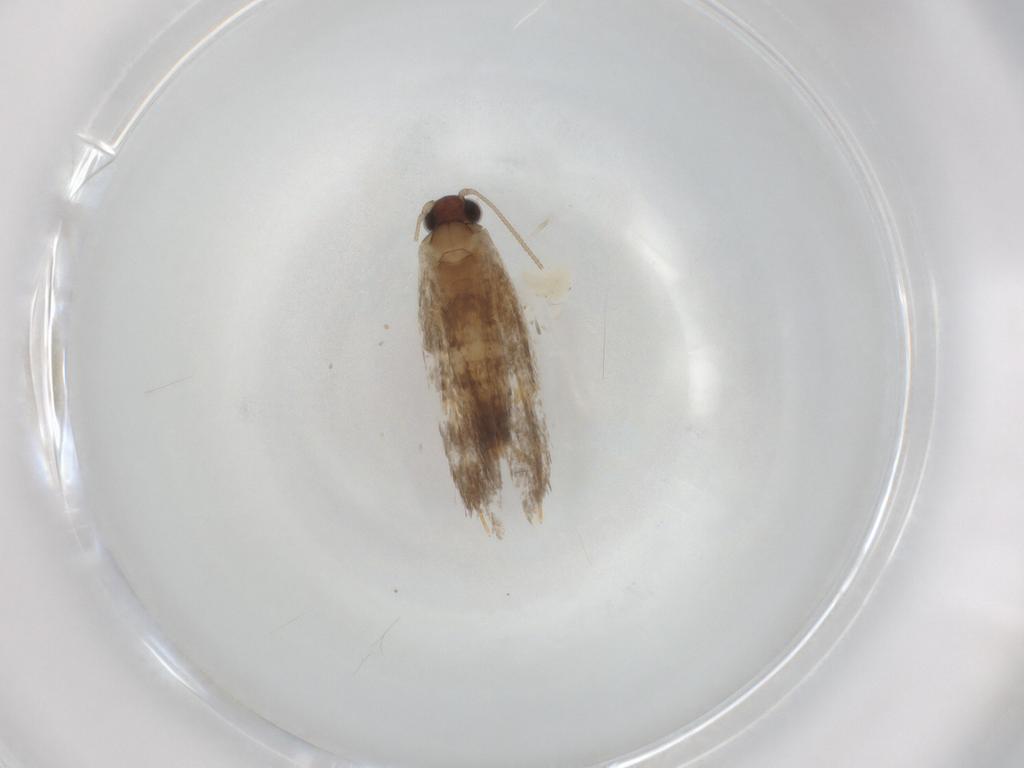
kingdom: Animalia
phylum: Arthropoda
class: Insecta
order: Lepidoptera
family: Tineidae
